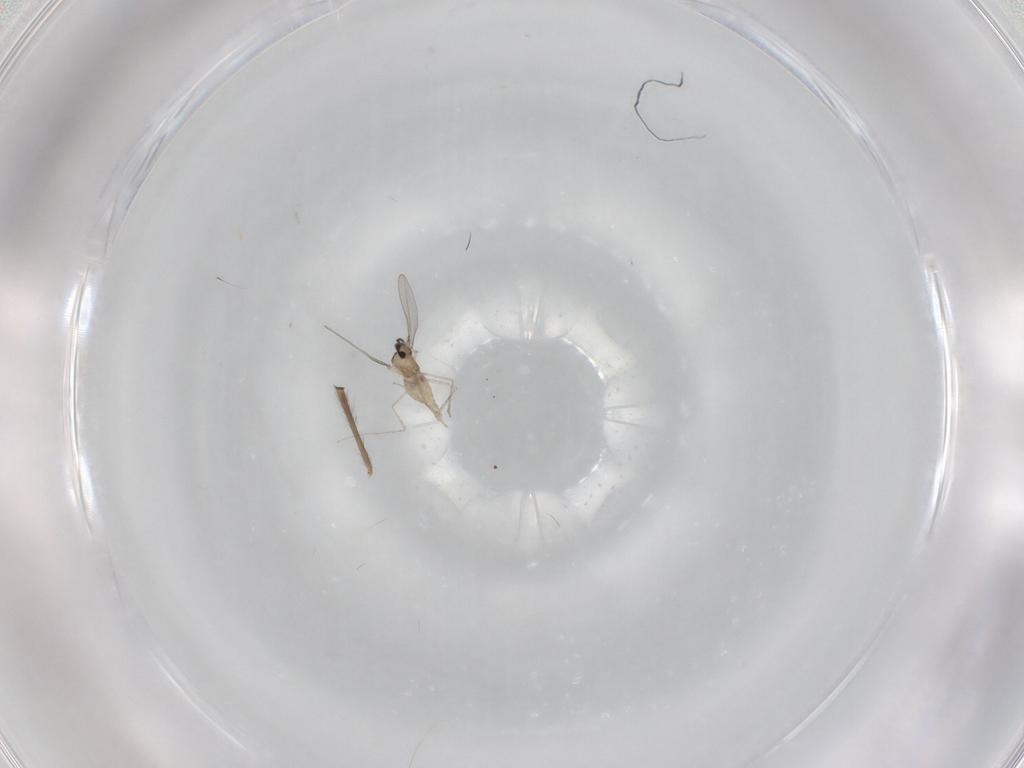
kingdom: Animalia
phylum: Arthropoda
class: Insecta
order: Diptera
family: Cecidomyiidae
